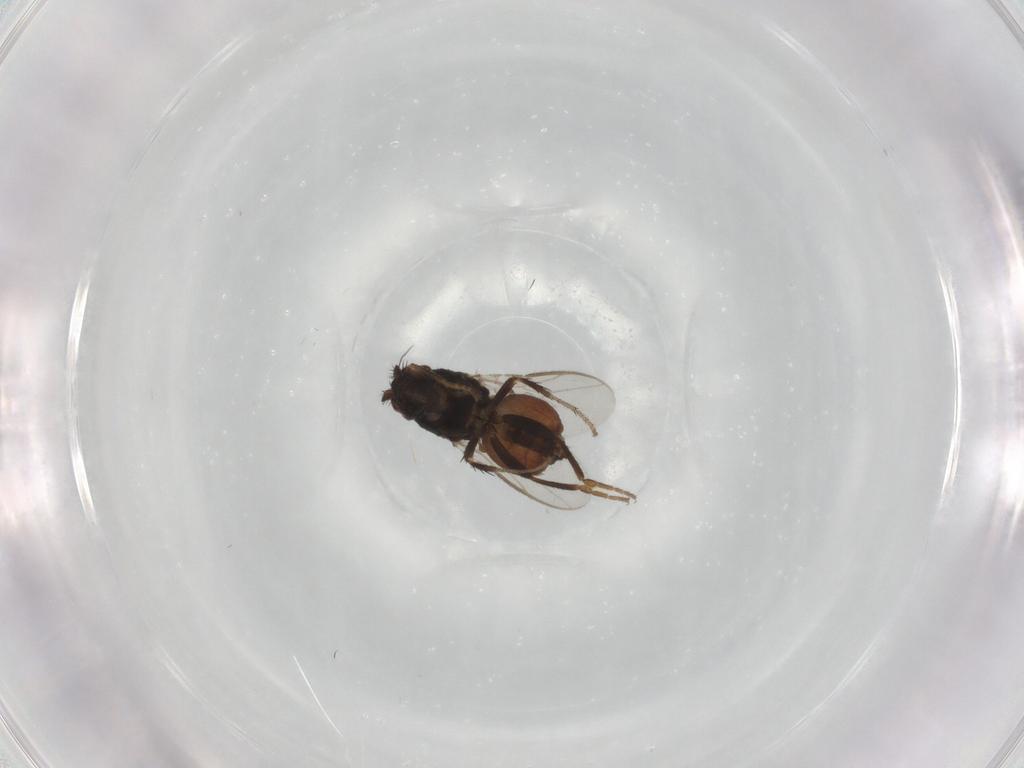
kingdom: Animalia
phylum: Arthropoda
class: Insecta
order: Diptera
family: Sphaeroceridae
